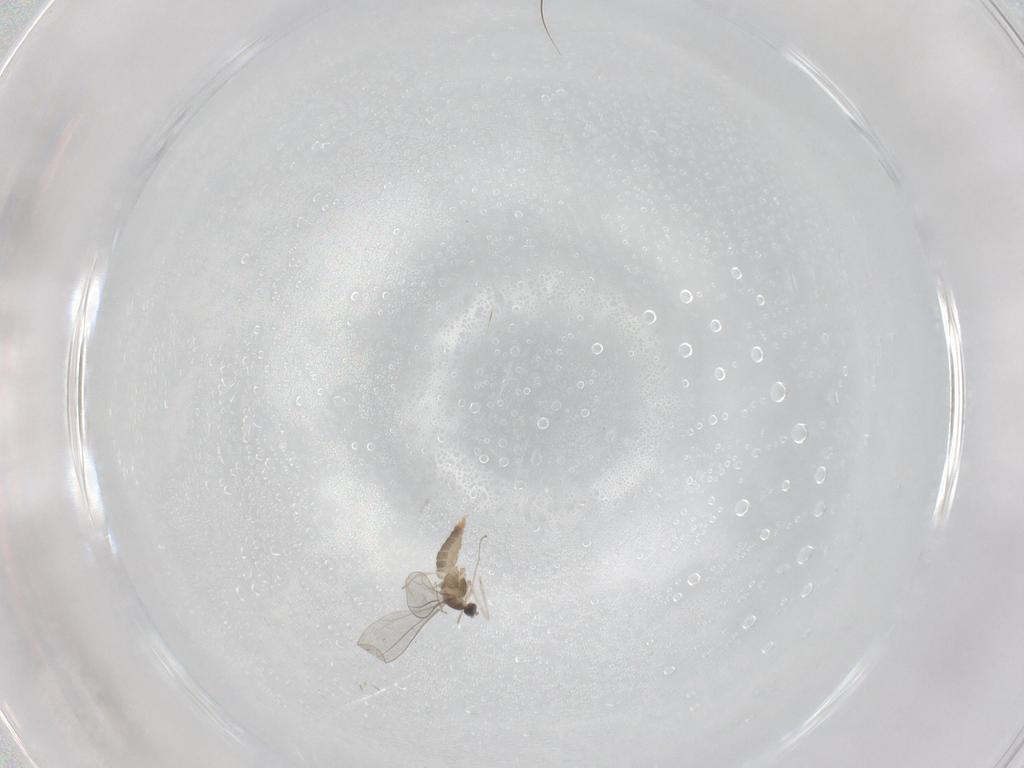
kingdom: Animalia
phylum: Arthropoda
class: Insecta
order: Diptera
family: Cecidomyiidae
